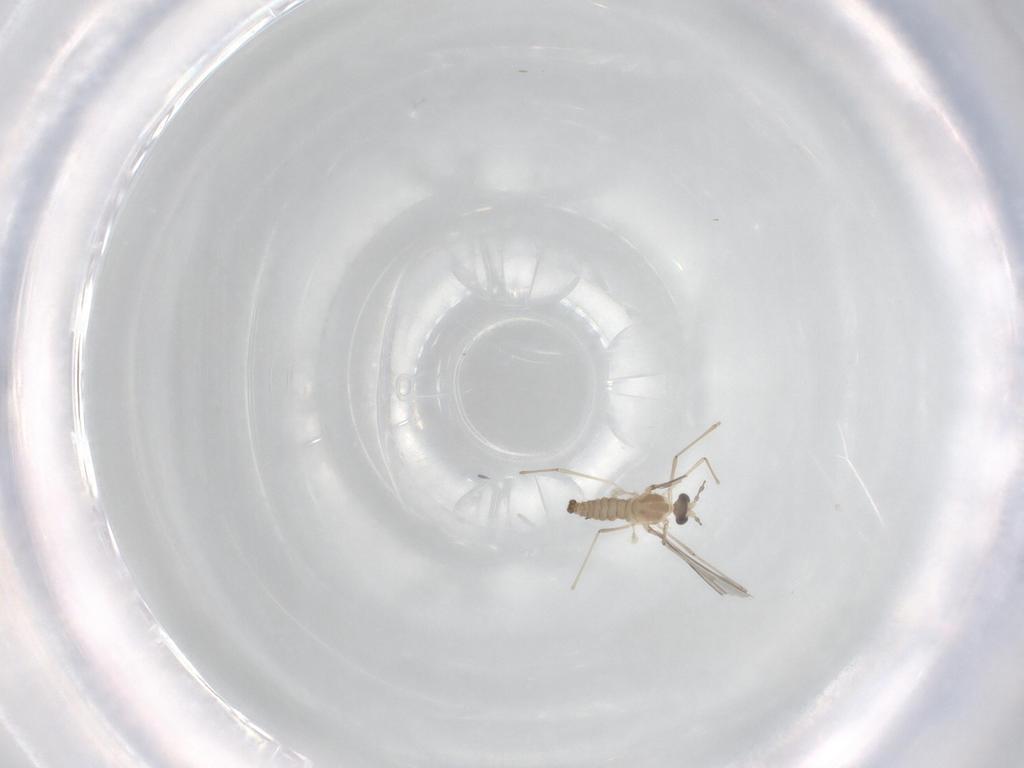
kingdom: Animalia
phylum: Arthropoda
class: Insecta
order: Diptera
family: Cecidomyiidae
